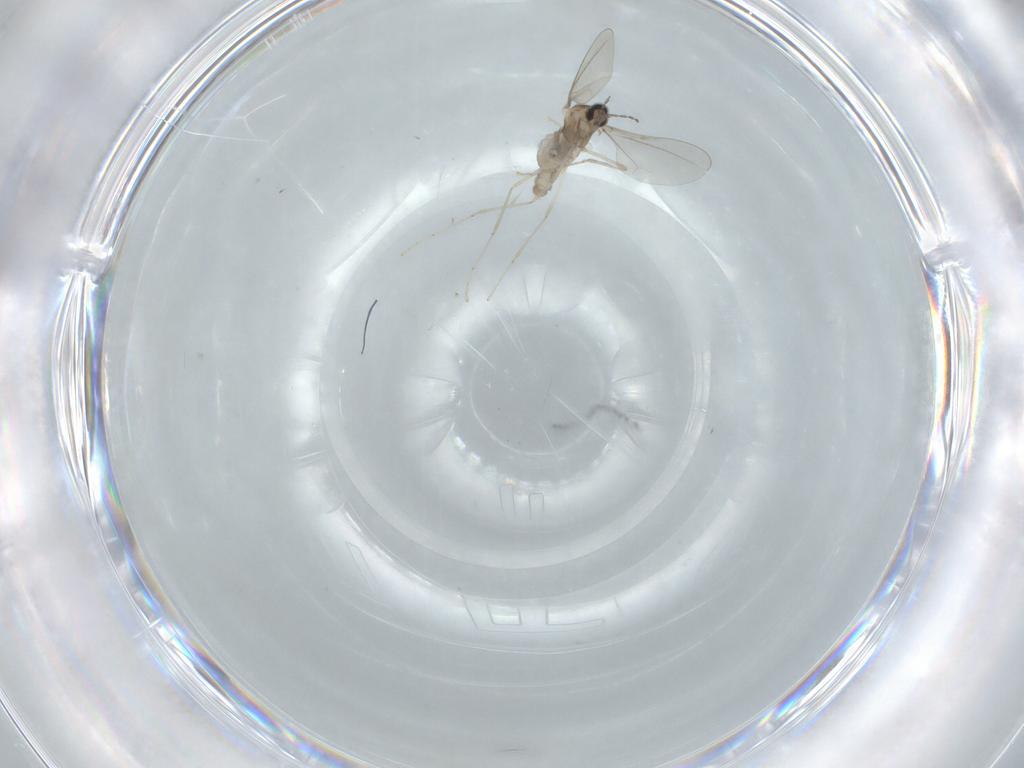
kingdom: Animalia
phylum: Arthropoda
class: Insecta
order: Diptera
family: Cecidomyiidae
